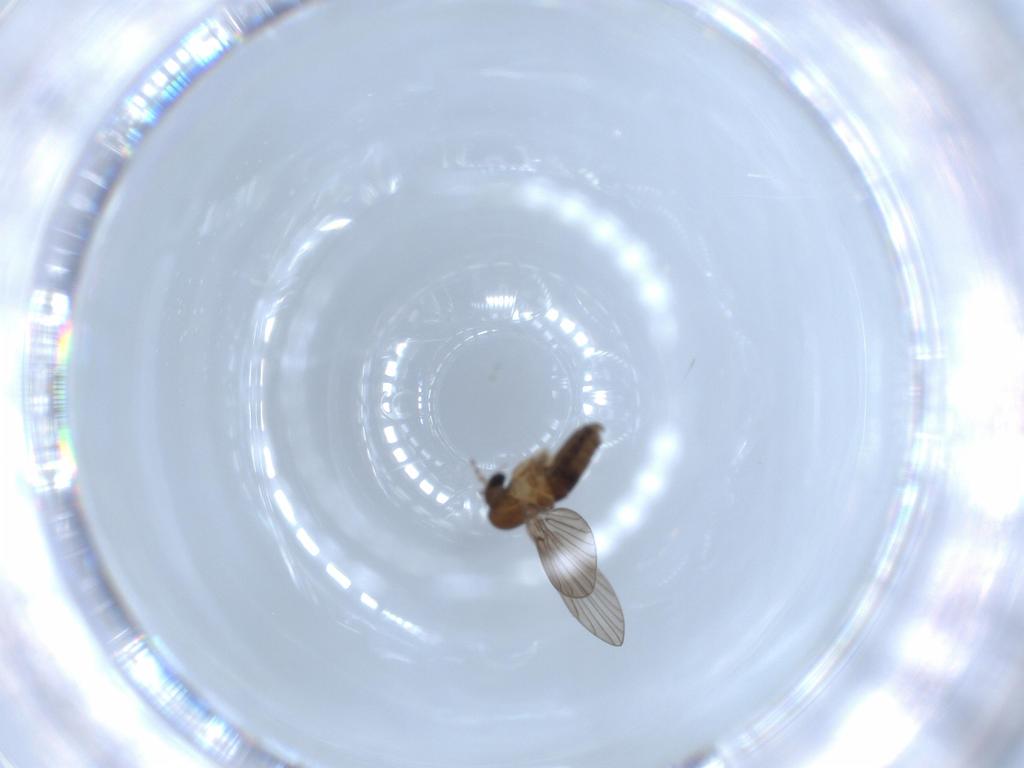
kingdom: Animalia
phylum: Arthropoda
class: Insecta
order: Diptera
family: Psychodidae
